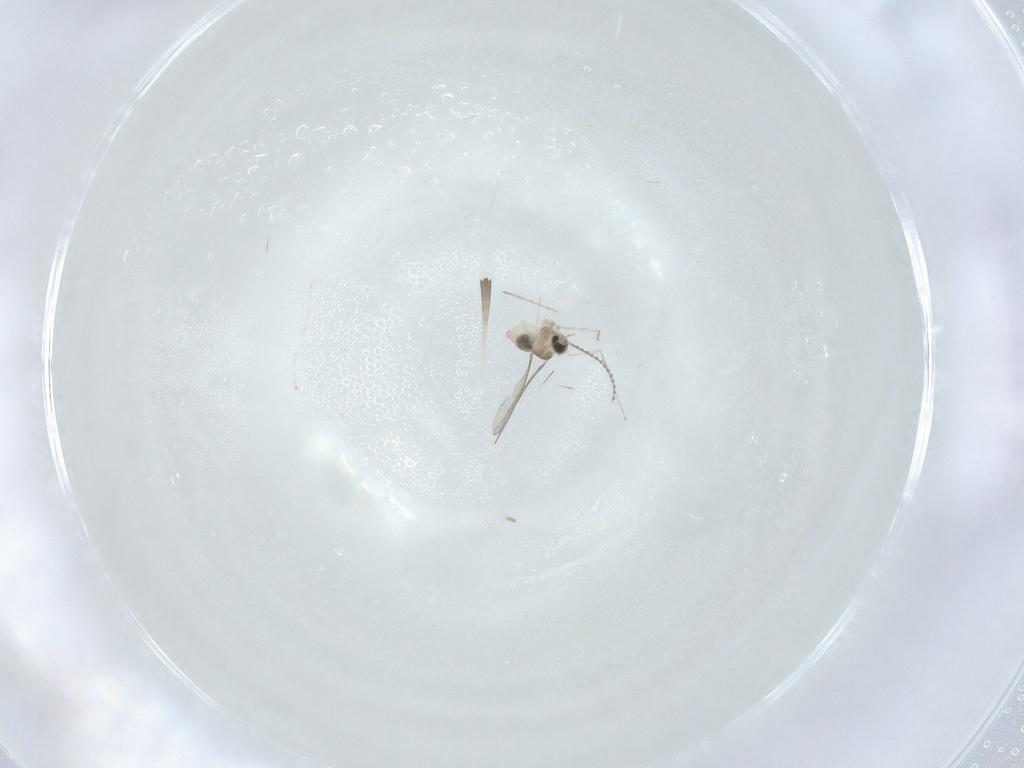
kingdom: Animalia
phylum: Arthropoda
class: Insecta
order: Diptera
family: Cecidomyiidae
